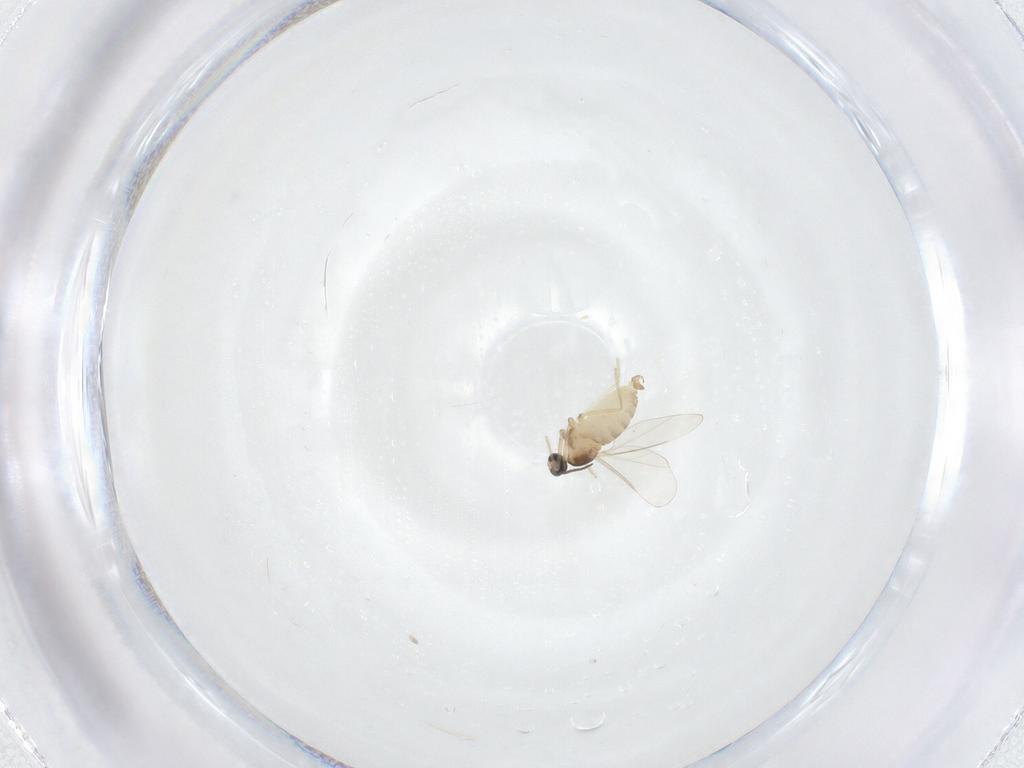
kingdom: Animalia
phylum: Arthropoda
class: Insecta
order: Diptera
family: Cecidomyiidae
